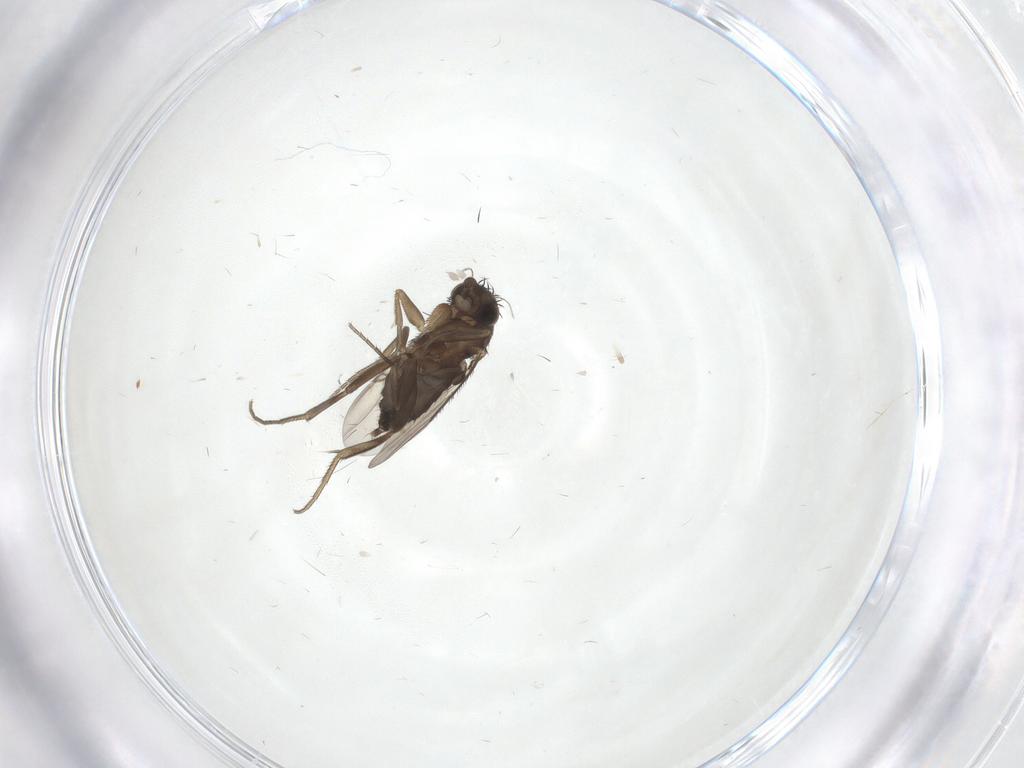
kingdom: Animalia
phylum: Arthropoda
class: Insecta
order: Diptera
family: Phoridae
